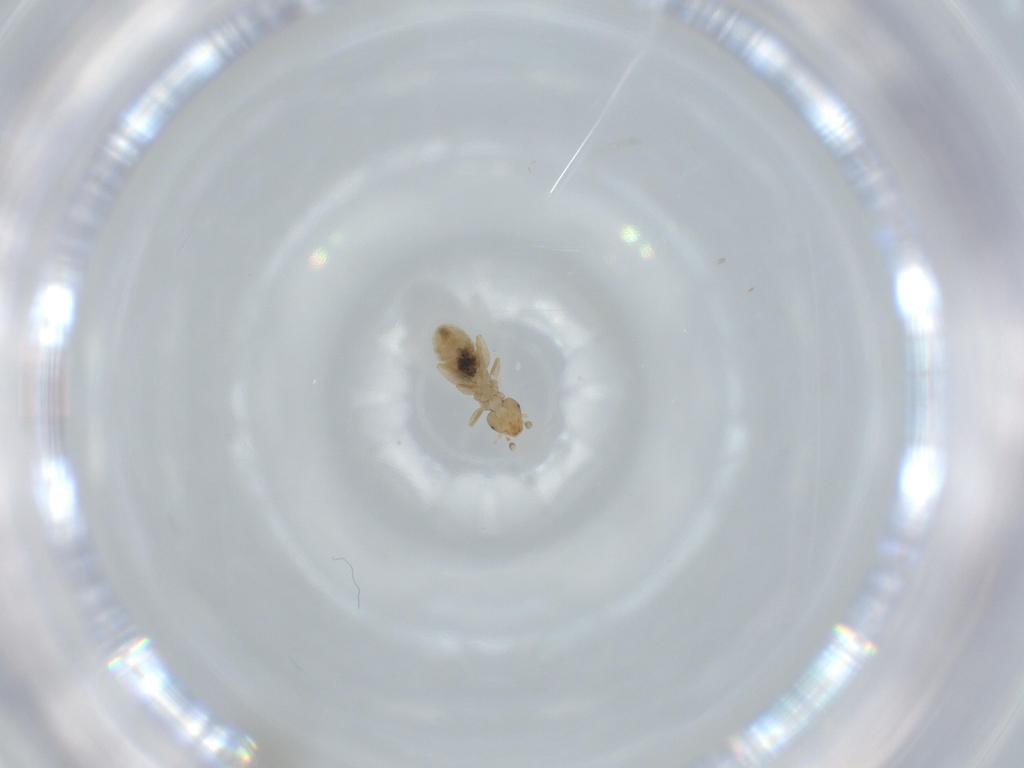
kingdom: Animalia
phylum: Arthropoda
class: Insecta
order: Psocodea
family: Liposcelididae
